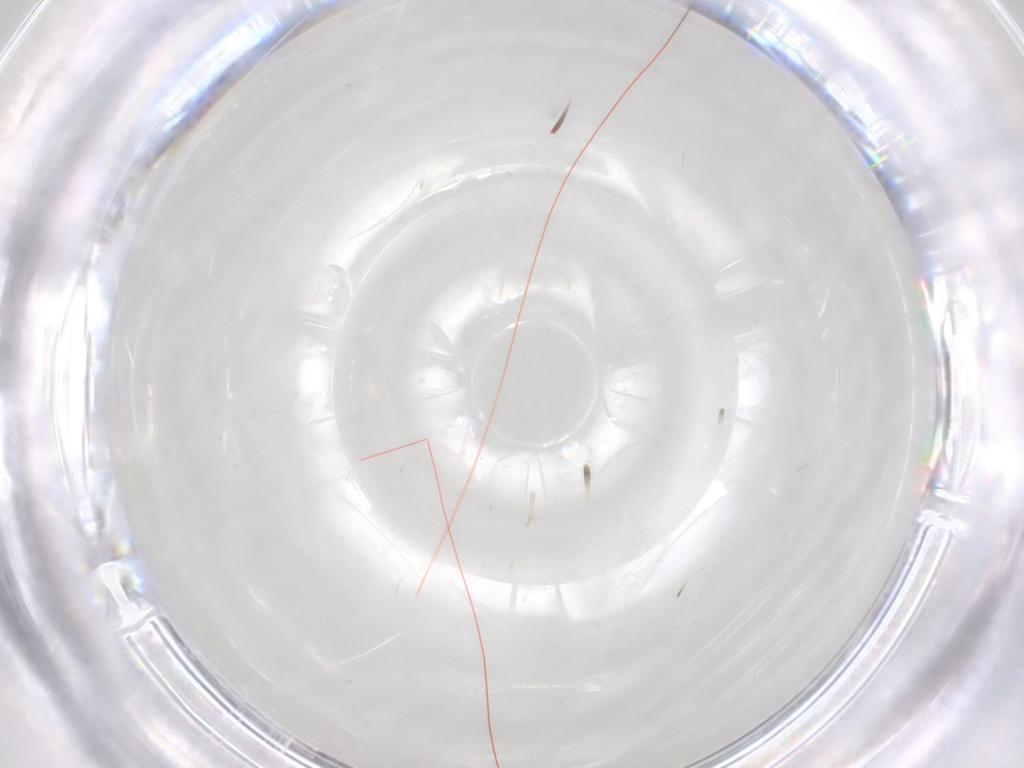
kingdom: Animalia
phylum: Arthropoda
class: Insecta
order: Diptera
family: Cecidomyiidae
